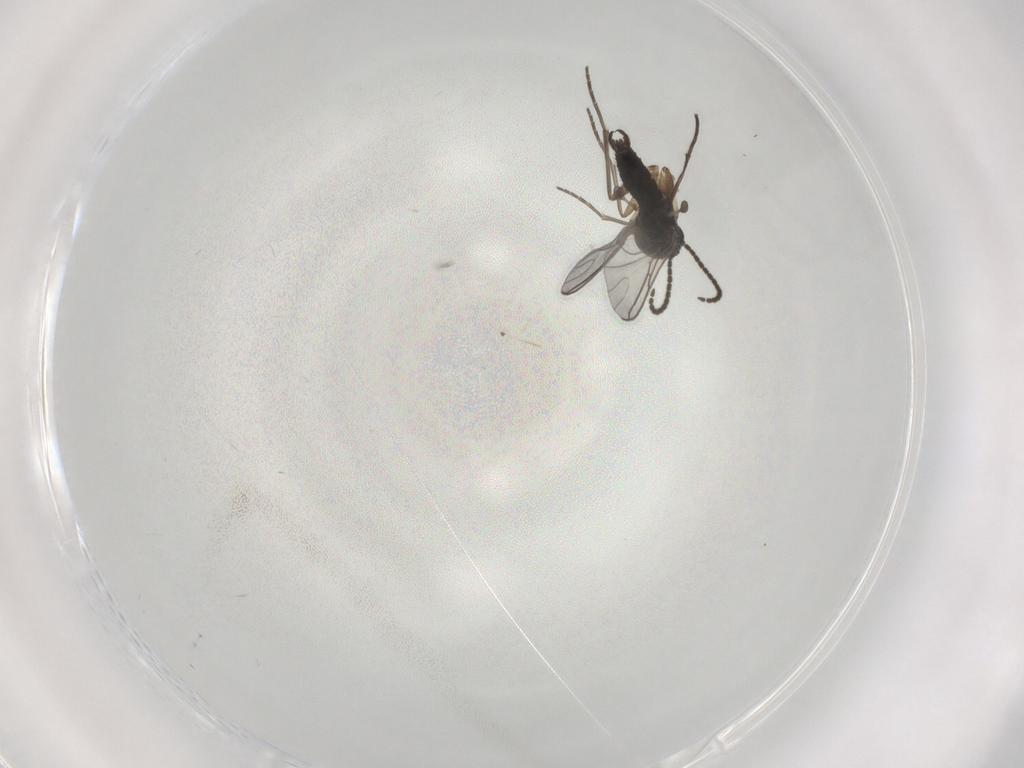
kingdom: Animalia
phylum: Arthropoda
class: Insecta
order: Diptera
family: Sciaridae
